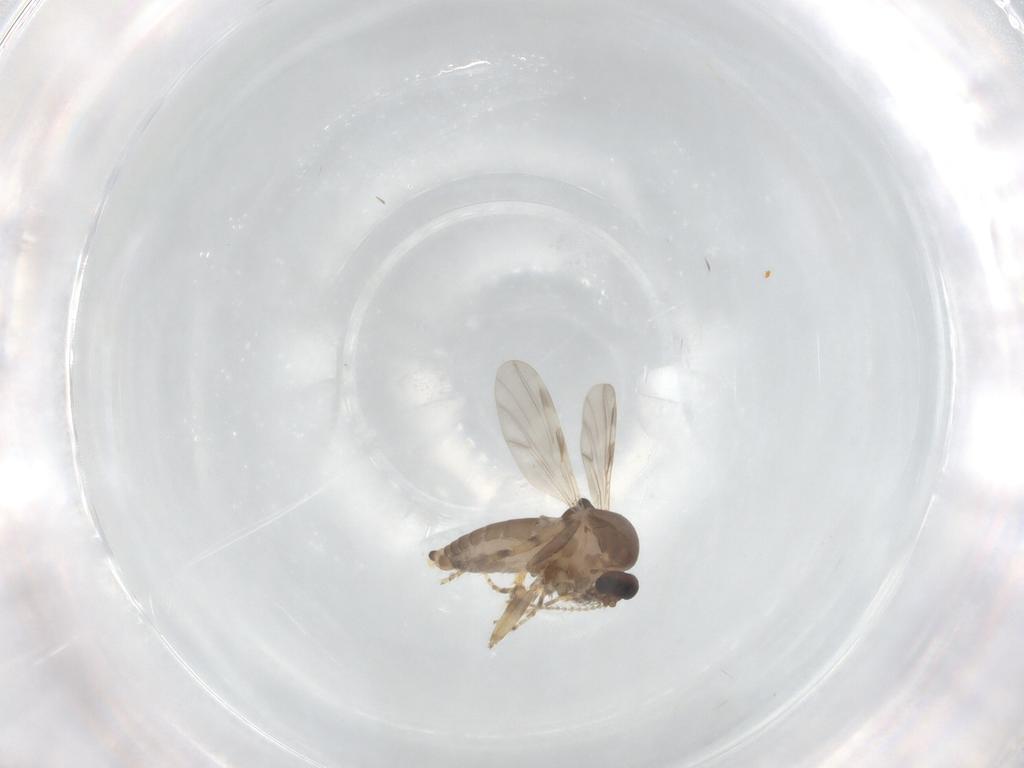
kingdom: Animalia
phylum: Arthropoda
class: Insecta
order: Diptera
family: Ceratopogonidae
